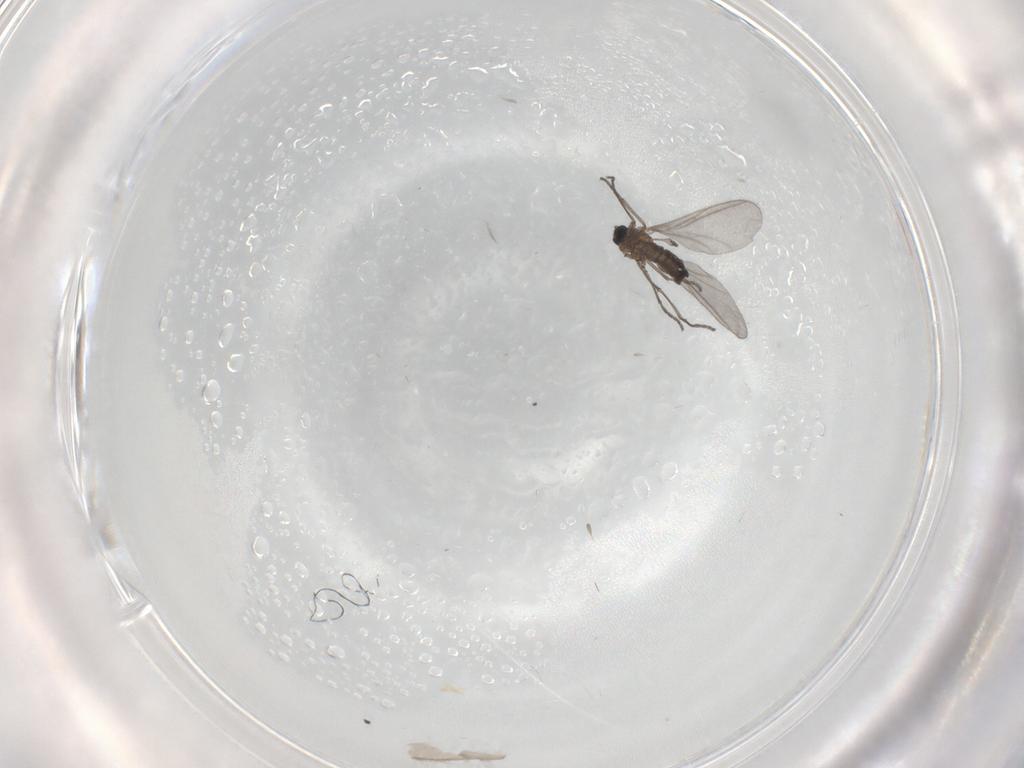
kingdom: Animalia
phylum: Arthropoda
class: Insecta
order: Diptera
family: Sciaridae
